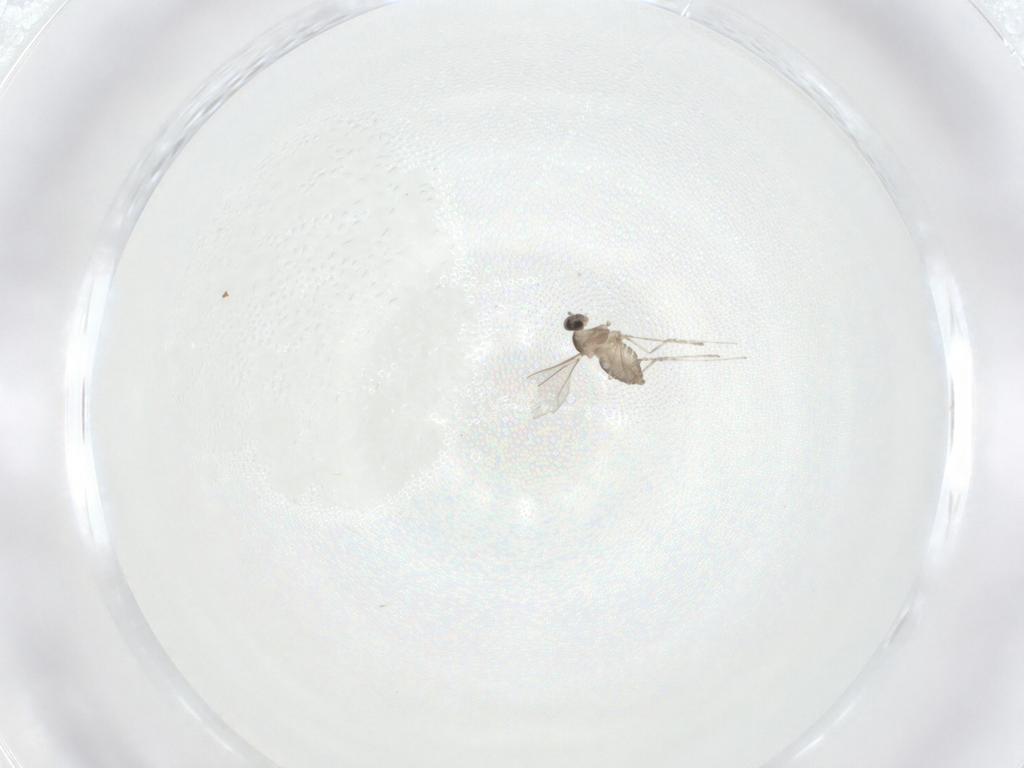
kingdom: Animalia
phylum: Arthropoda
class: Insecta
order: Diptera
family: Cecidomyiidae
